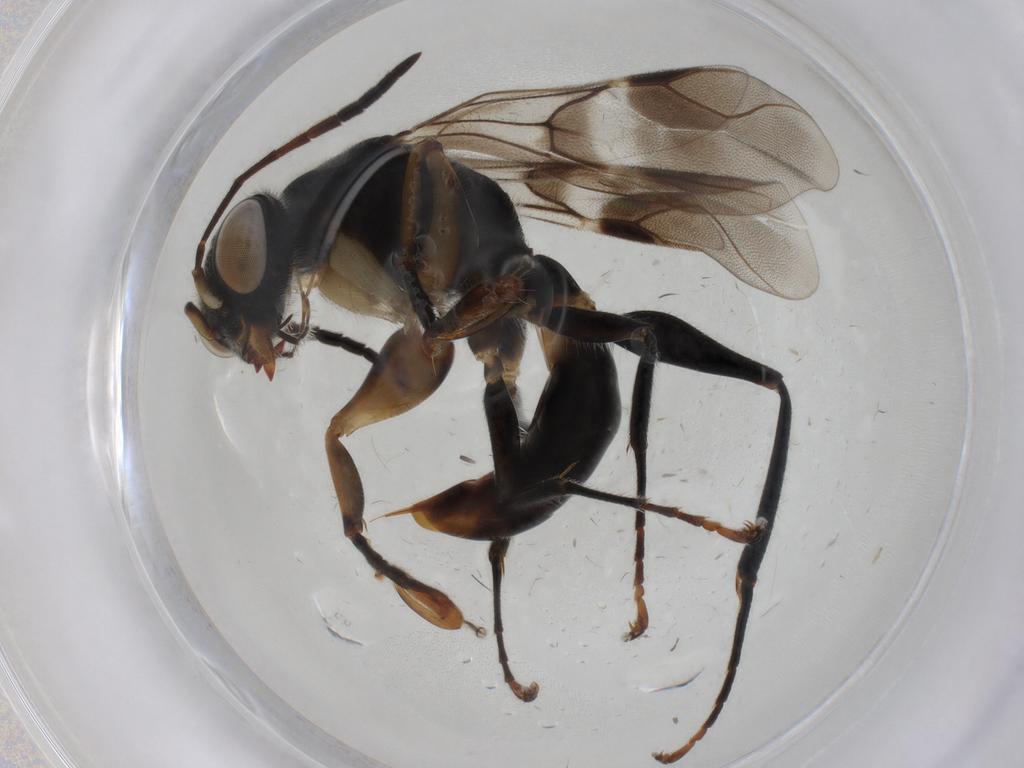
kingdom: Animalia
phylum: Arthropoda
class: Insecta
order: Hymenoptera
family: Dryinidae
